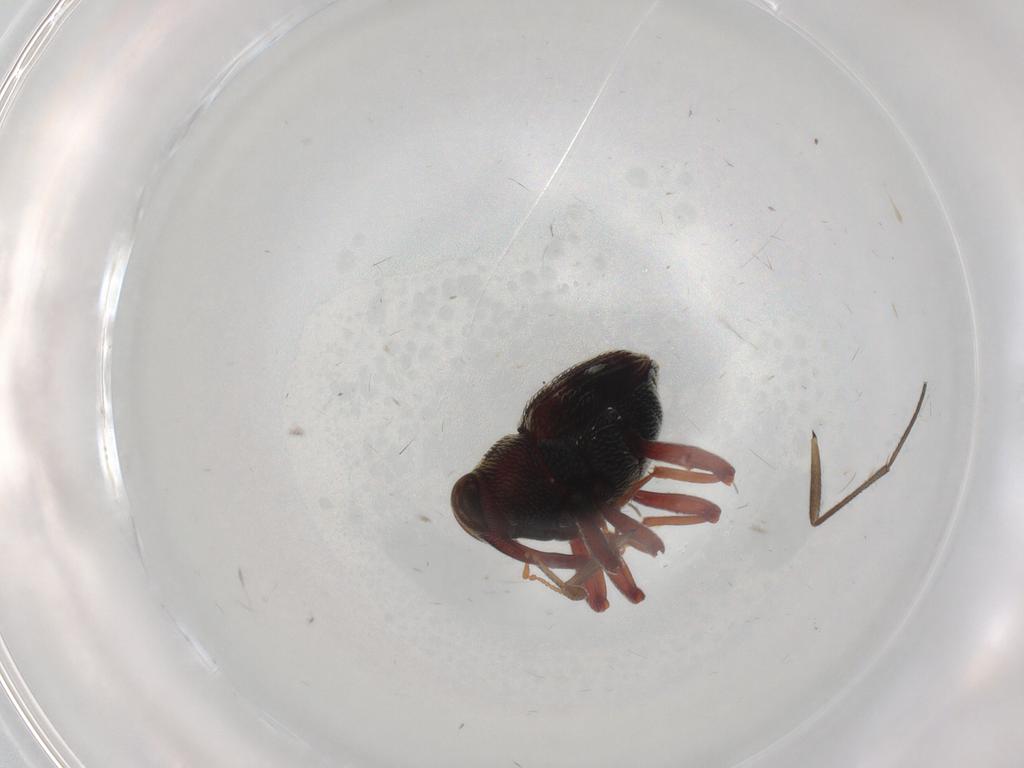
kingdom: Animalia
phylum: Arthropoda
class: Insecta
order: Coleoptera
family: Curculionidae
